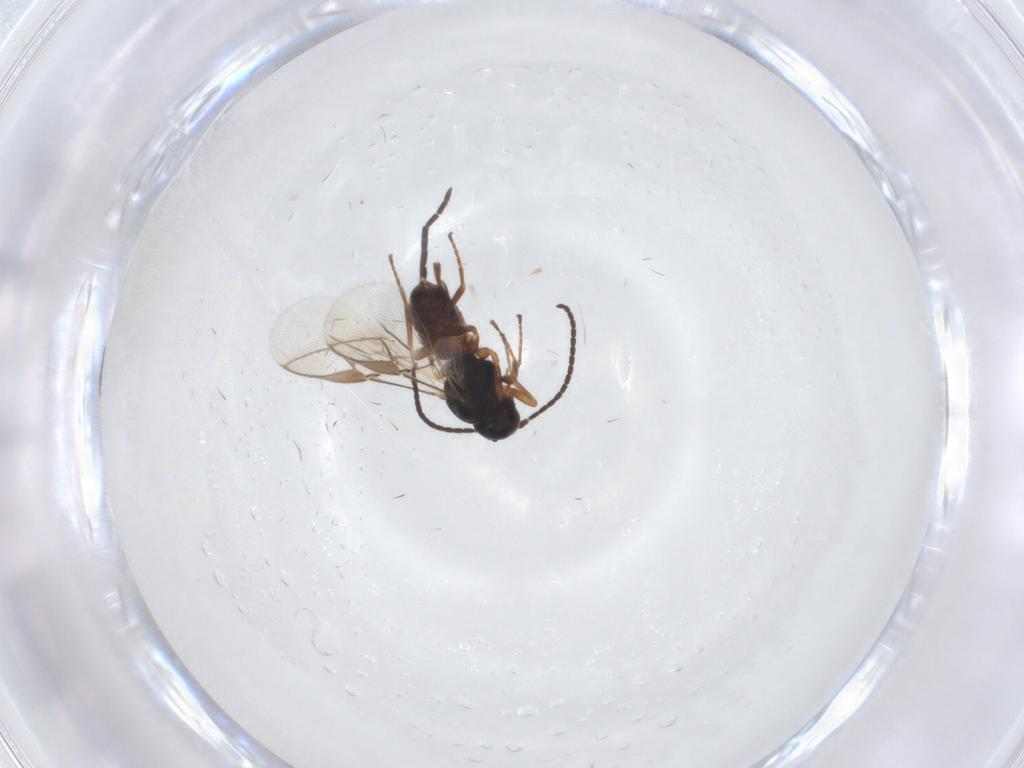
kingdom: Animalia
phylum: Arthropoda
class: Insecta
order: Hymenoptera
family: Braconidae
